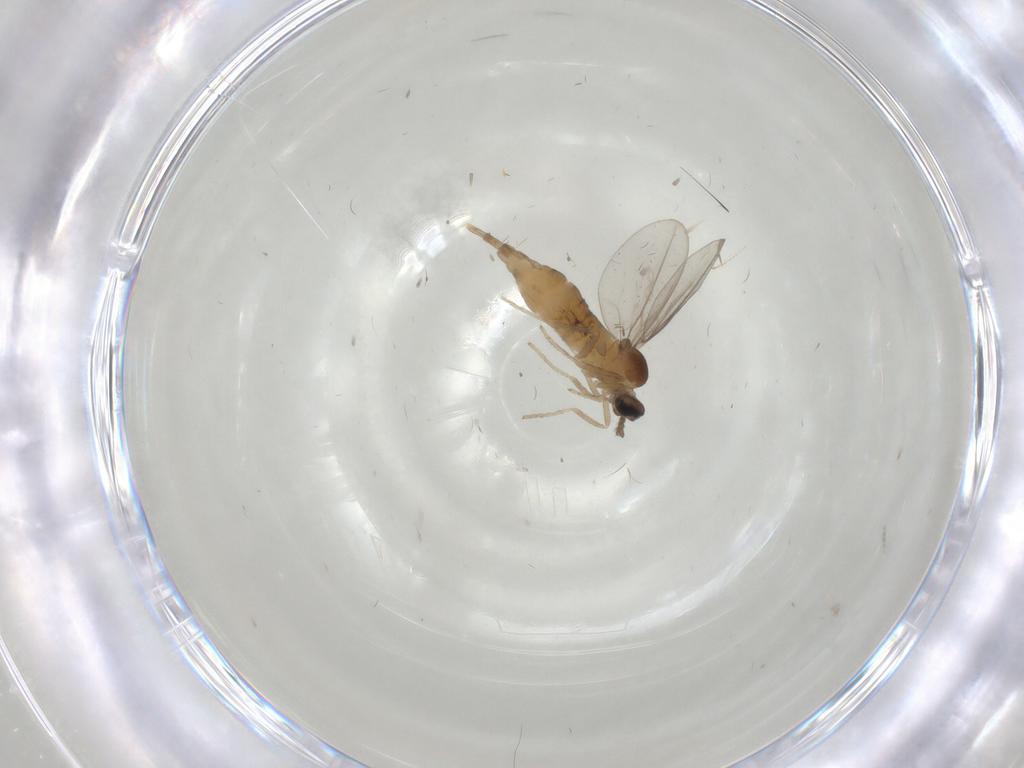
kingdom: Animalia
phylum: Arthropoda
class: Insecta
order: Diptera
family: Cecidomyiidae
